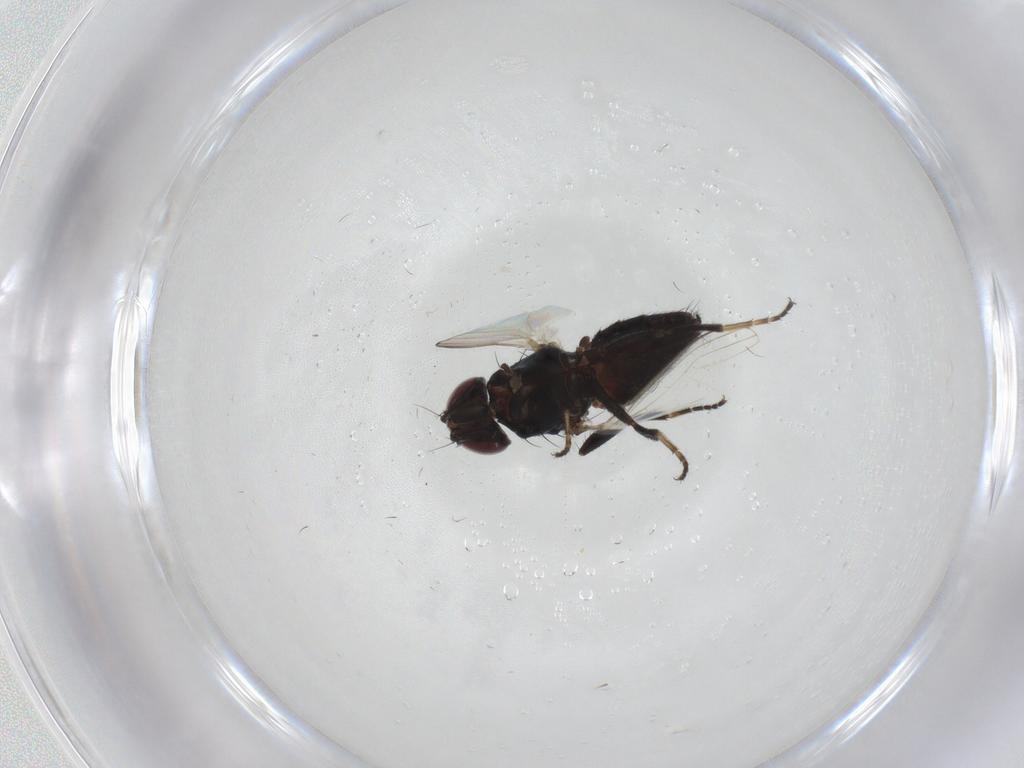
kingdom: Animalia
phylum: Arthropoda
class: Insecta
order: Diptera
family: Milichiidae
